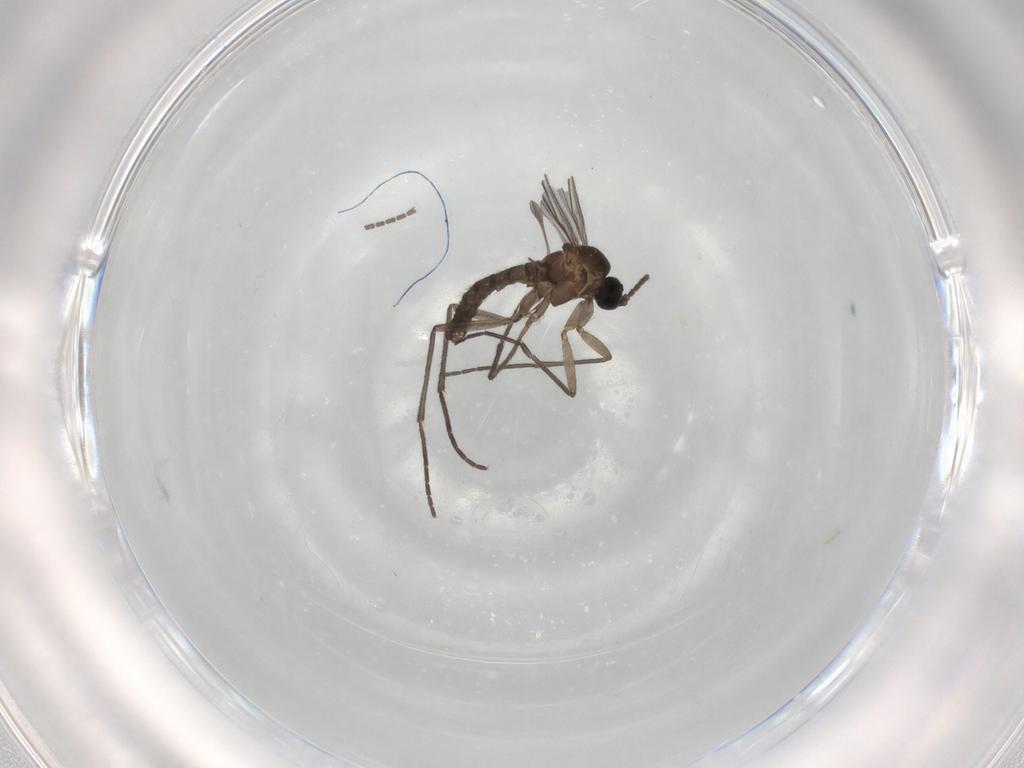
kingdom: Animalia
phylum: Arthropoda
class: Insecta
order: Diptera
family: Sciaridae
